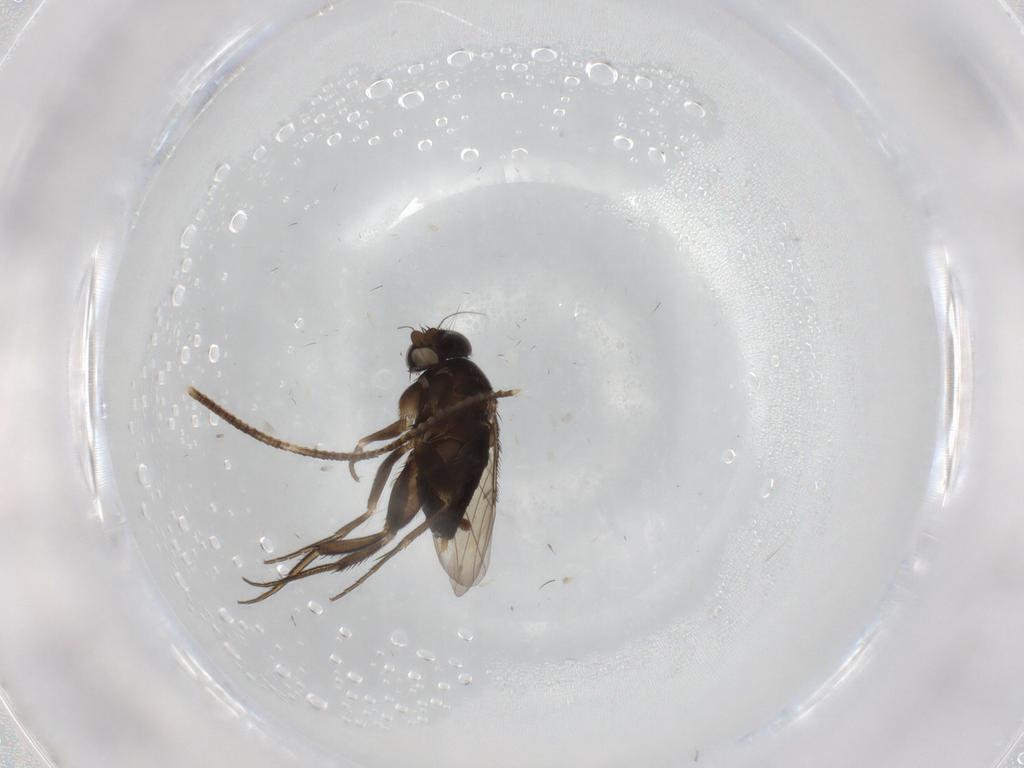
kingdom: Animalia
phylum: Arthropoda
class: Insecta
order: Diptera
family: Phoridae
